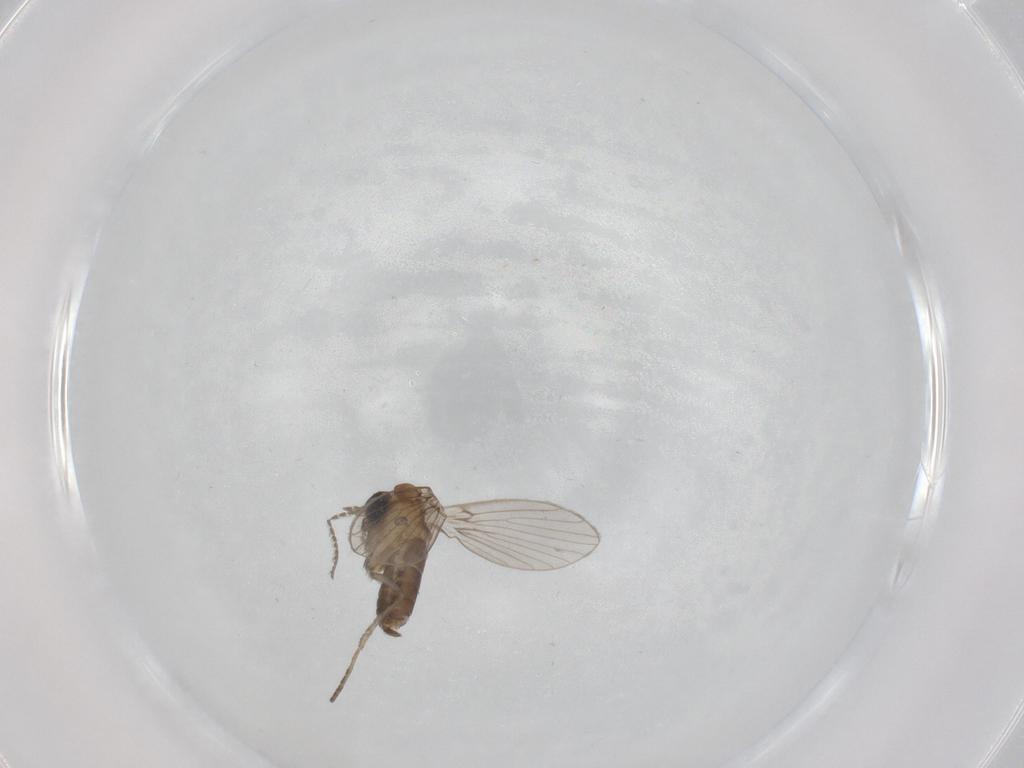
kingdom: Animalia
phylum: Arthropoda
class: Insecta
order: Diptera
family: Psychodidae
